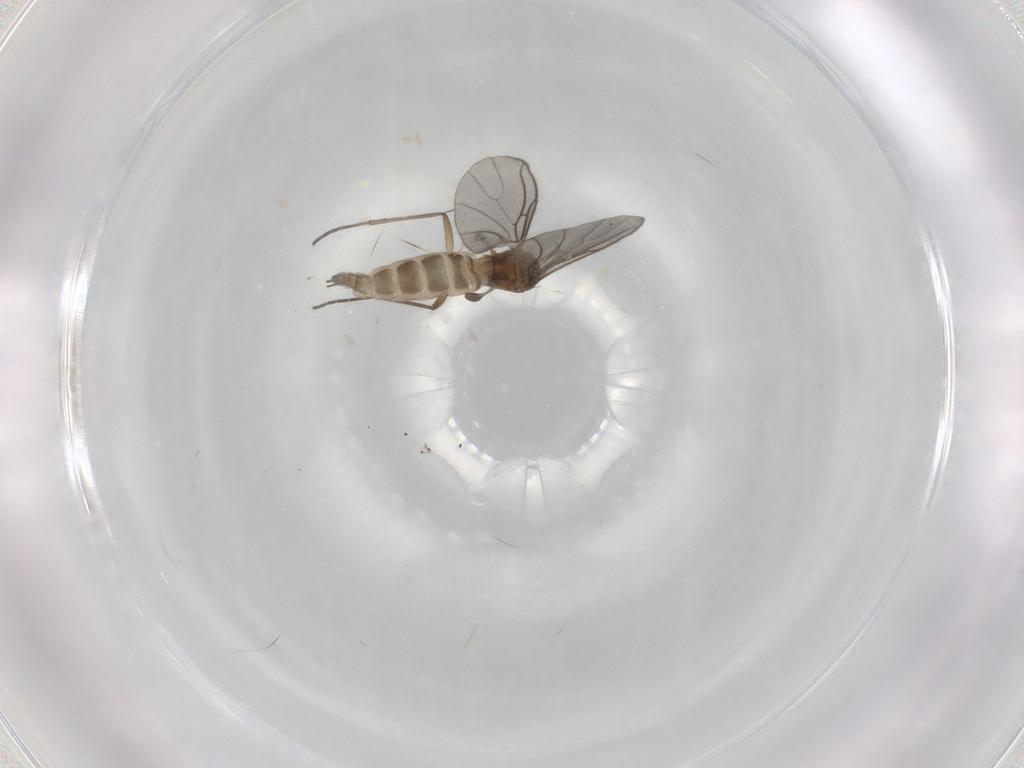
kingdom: Animalia
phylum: Arthropoda
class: Insecta
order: Diptera
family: Sciaridae
